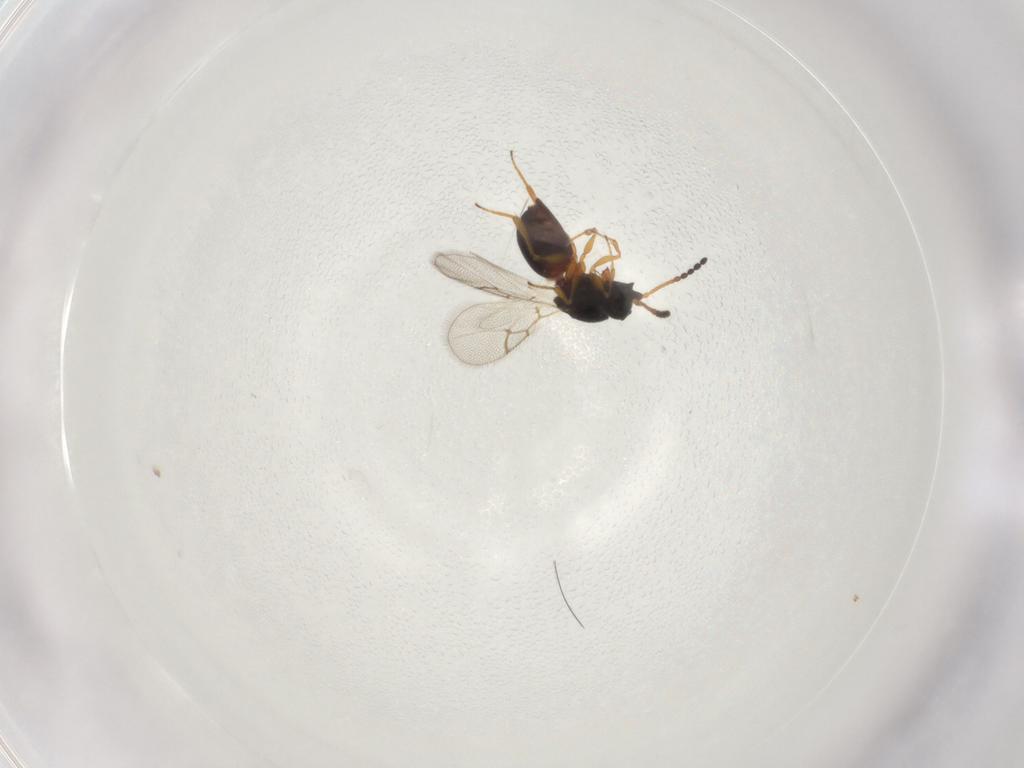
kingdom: Animalia
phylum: Arthropoda
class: Insecta
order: Hymenoptera
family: Figitidae
